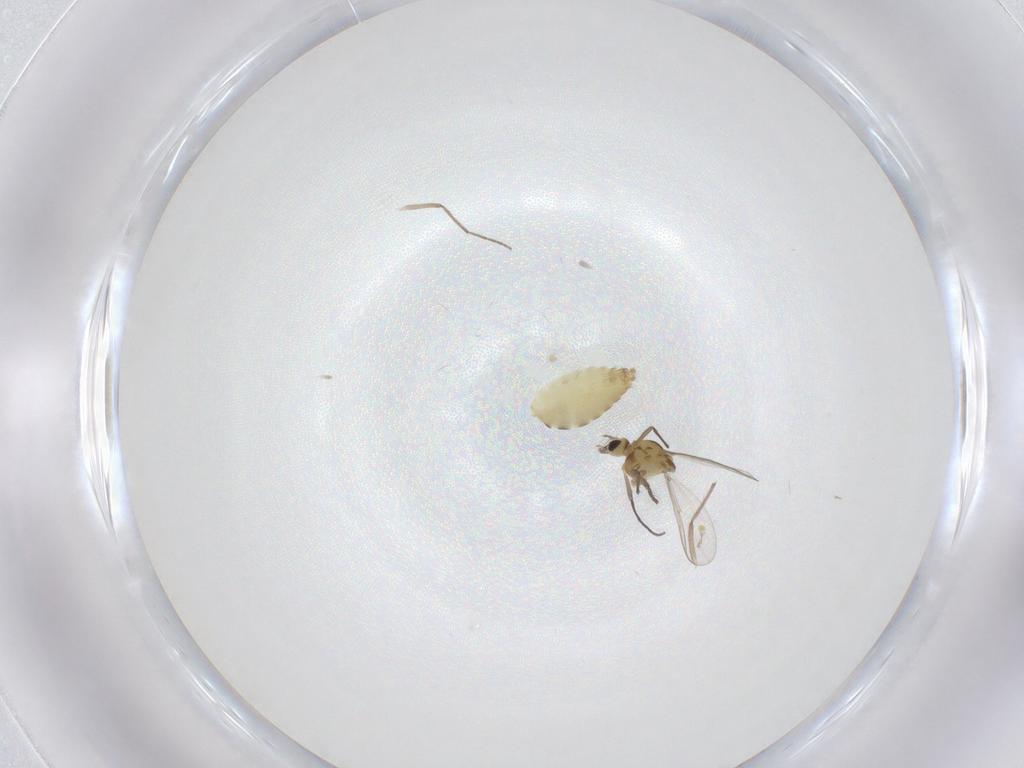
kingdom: Animalia
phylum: Arthropoda
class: Insecta
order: Diptera
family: Chironomidae
